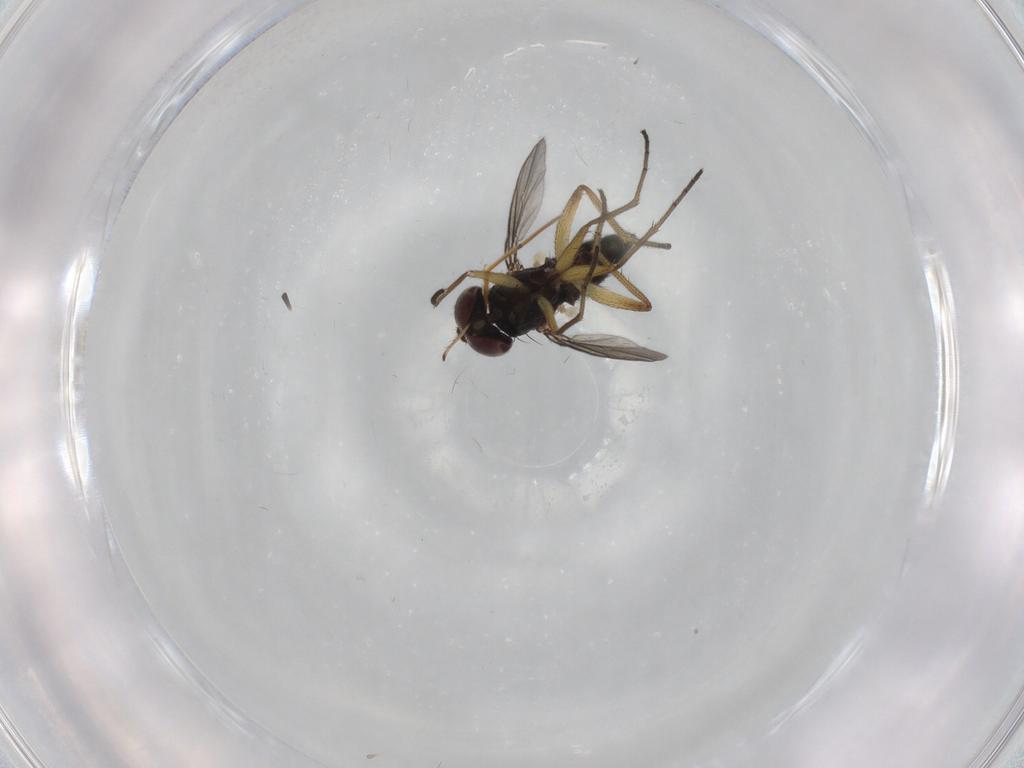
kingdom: Animalia
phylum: Arthropoda
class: Insecta
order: Diptera
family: Dolichopodidae
